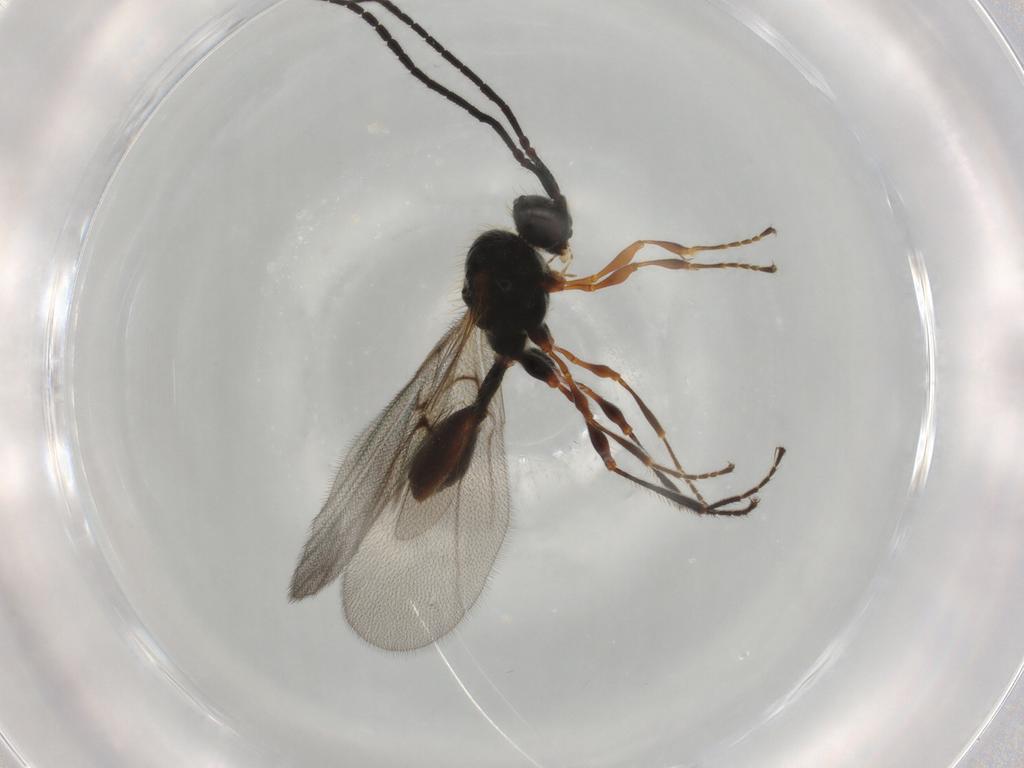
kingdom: Animalia
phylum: Arthropoda
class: Insecta
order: Hymenoptera
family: Diapriidae
